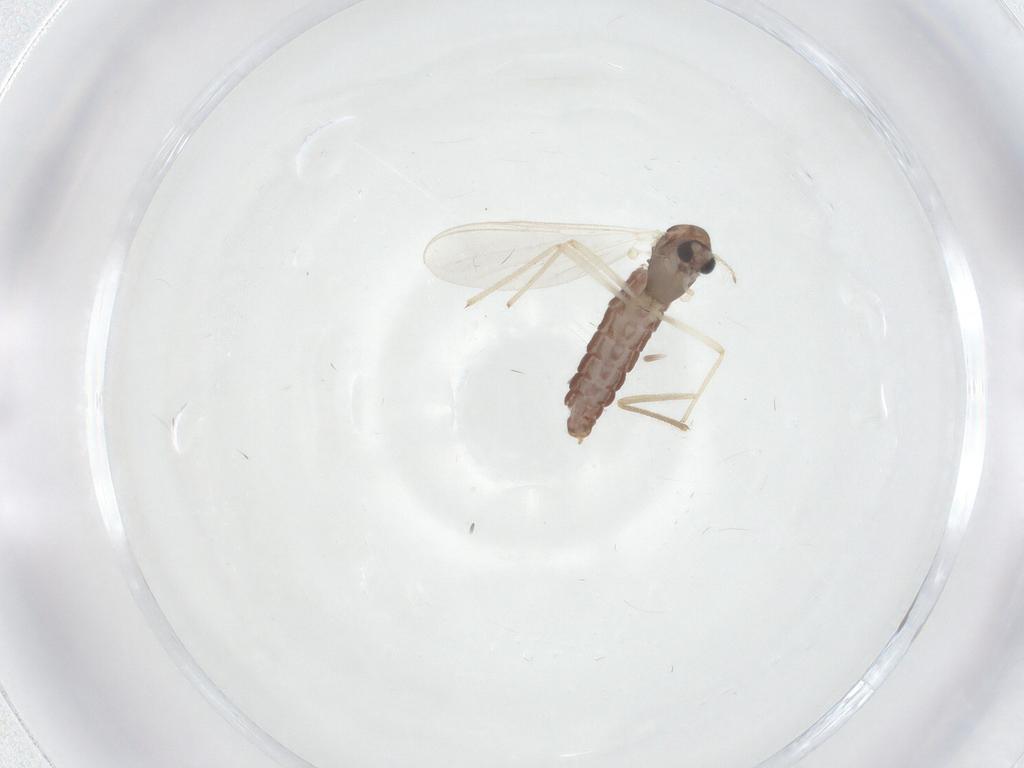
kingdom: Animalia
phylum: Arthropoda
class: Insecta
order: Diptera
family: Chironomidae
